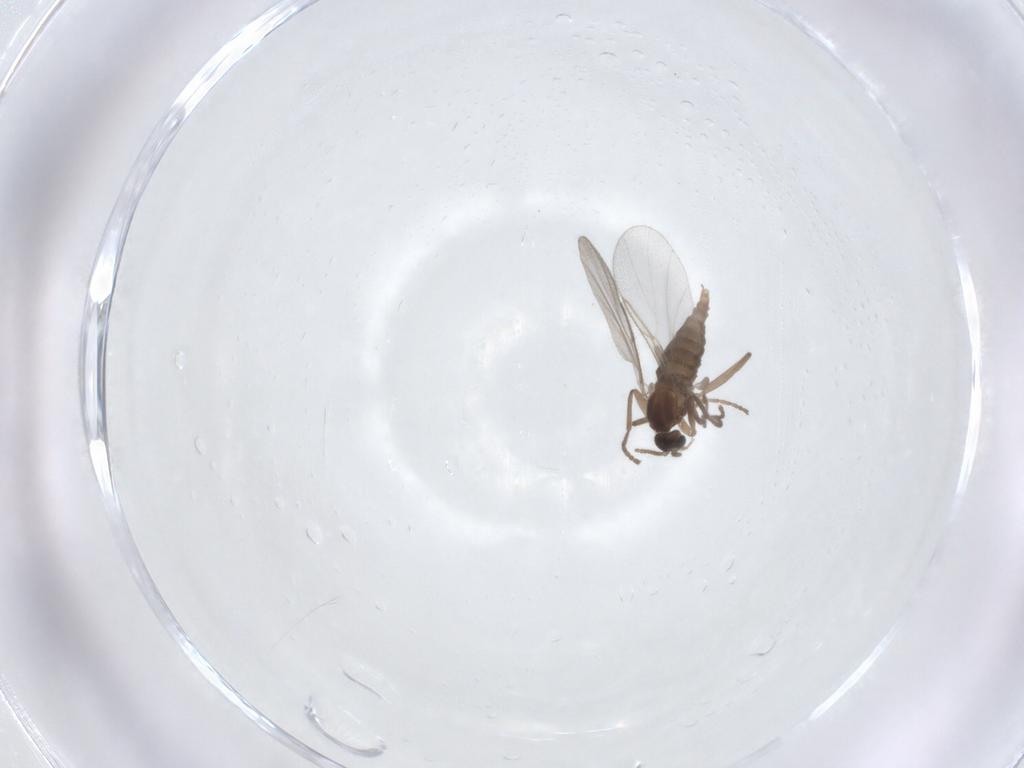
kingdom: Animalia
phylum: Arthropoda
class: Insecta
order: Diptera
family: Cecidomyiidae
